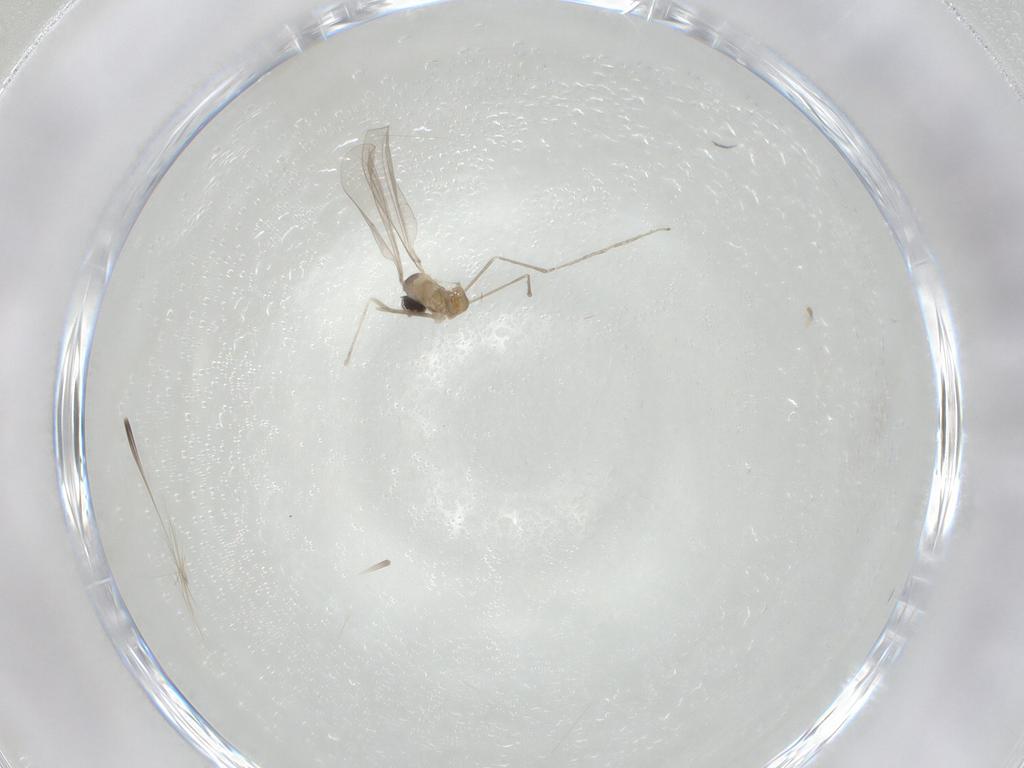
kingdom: Animalia
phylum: Arthropoda
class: Insecta
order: Diptera
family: Cecidomyiidae
